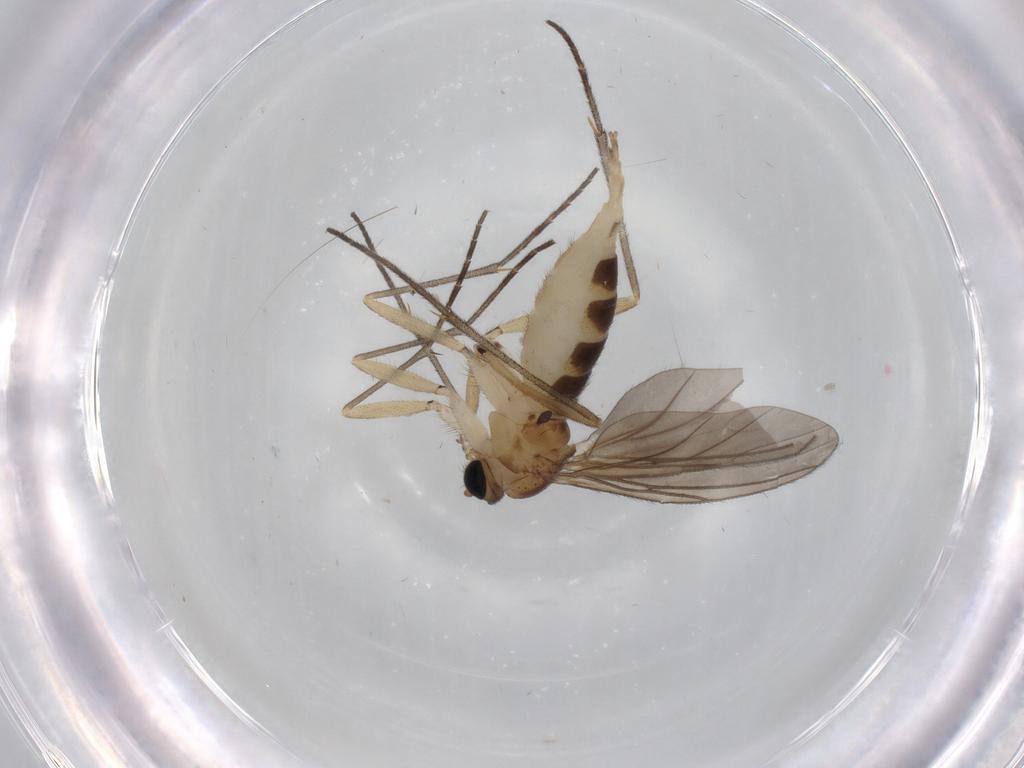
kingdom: Animalia
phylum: Arthropoda
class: Insecta
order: Diptera
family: Sciaridae
